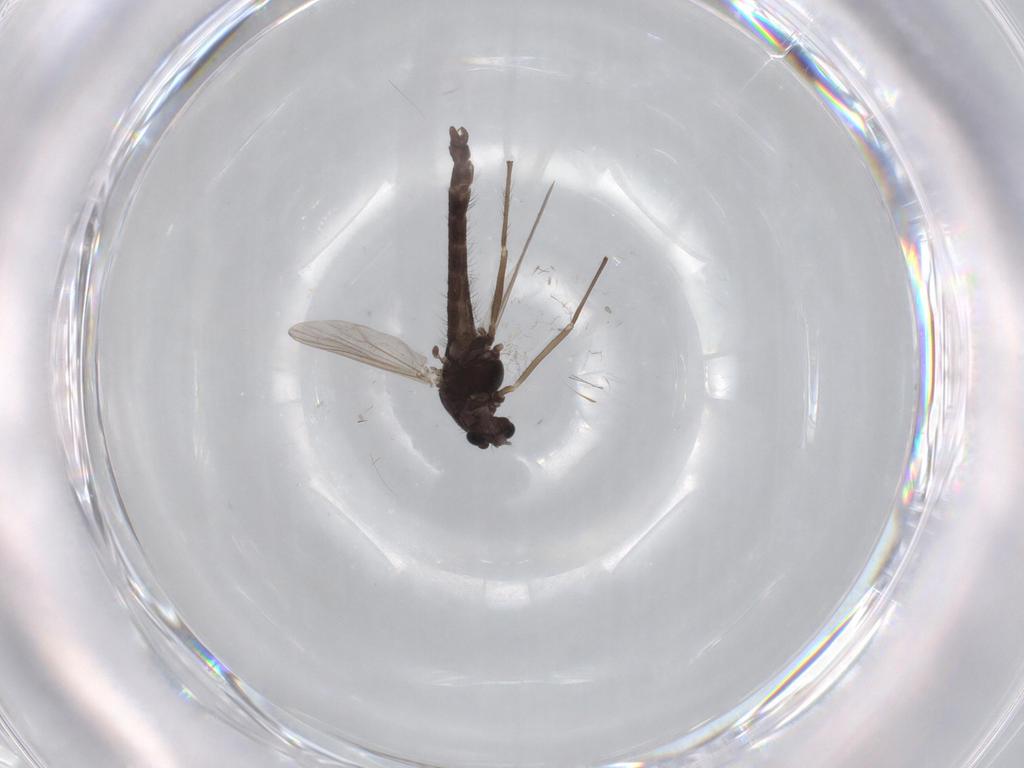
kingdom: Animalia
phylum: Arthropoda
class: Insecta
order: Diptera
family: Chironomidae
